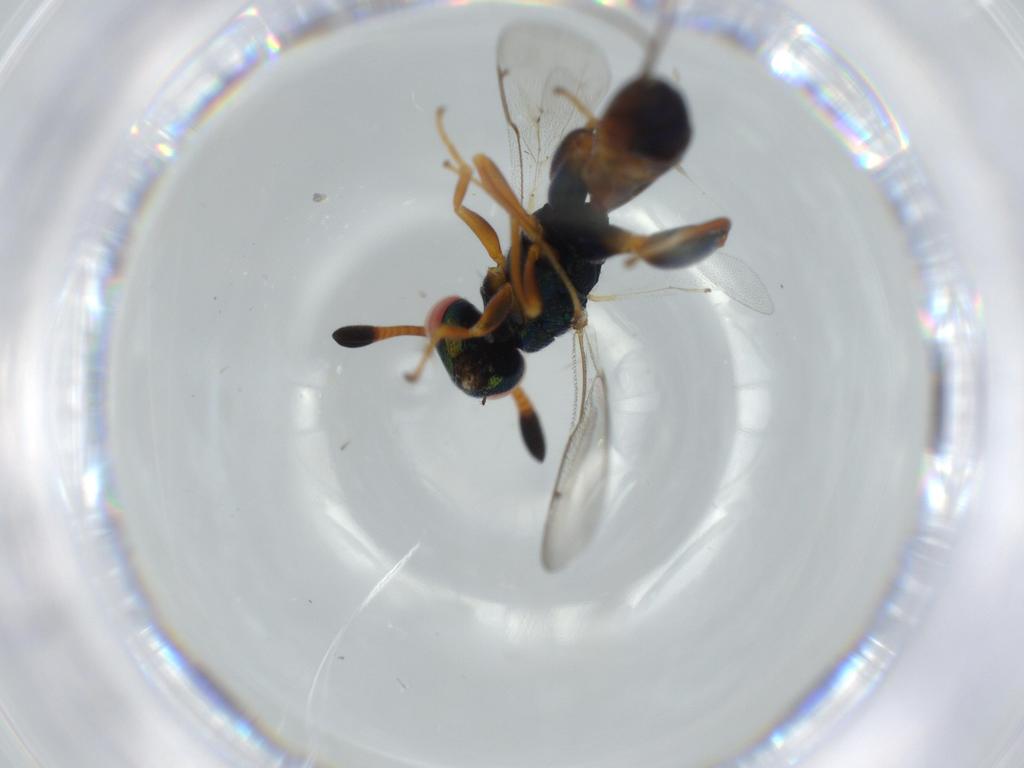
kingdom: Animalia
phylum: Arthropoda
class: Insecta
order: Hymenoptera
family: Torymidae
